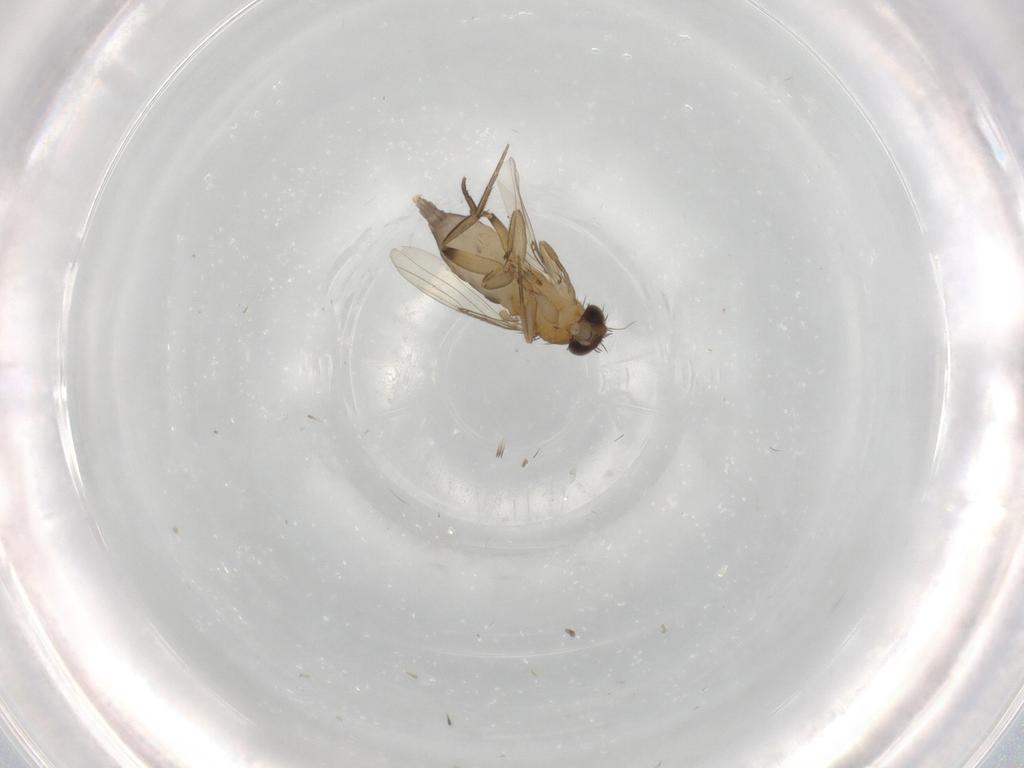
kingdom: Animalia
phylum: Arthropoda
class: Insecta
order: Diptera
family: Phoridae
